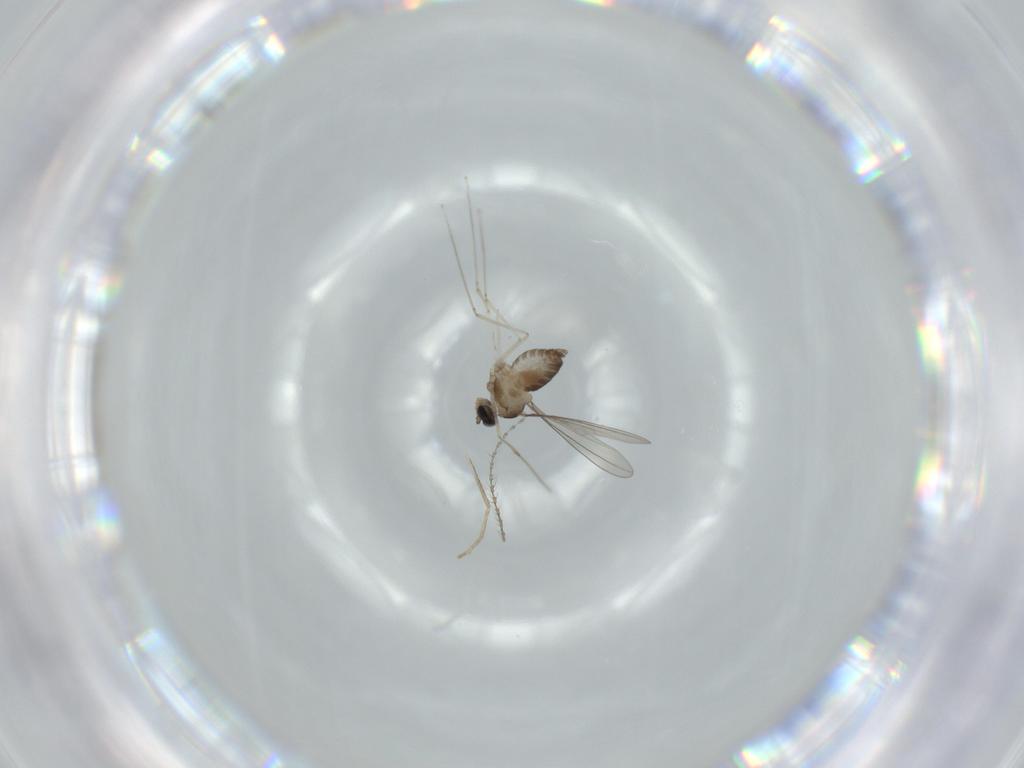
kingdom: Animalia
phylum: Arthropoda
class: Insecta
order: Diptera
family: Cecidomyiidae
